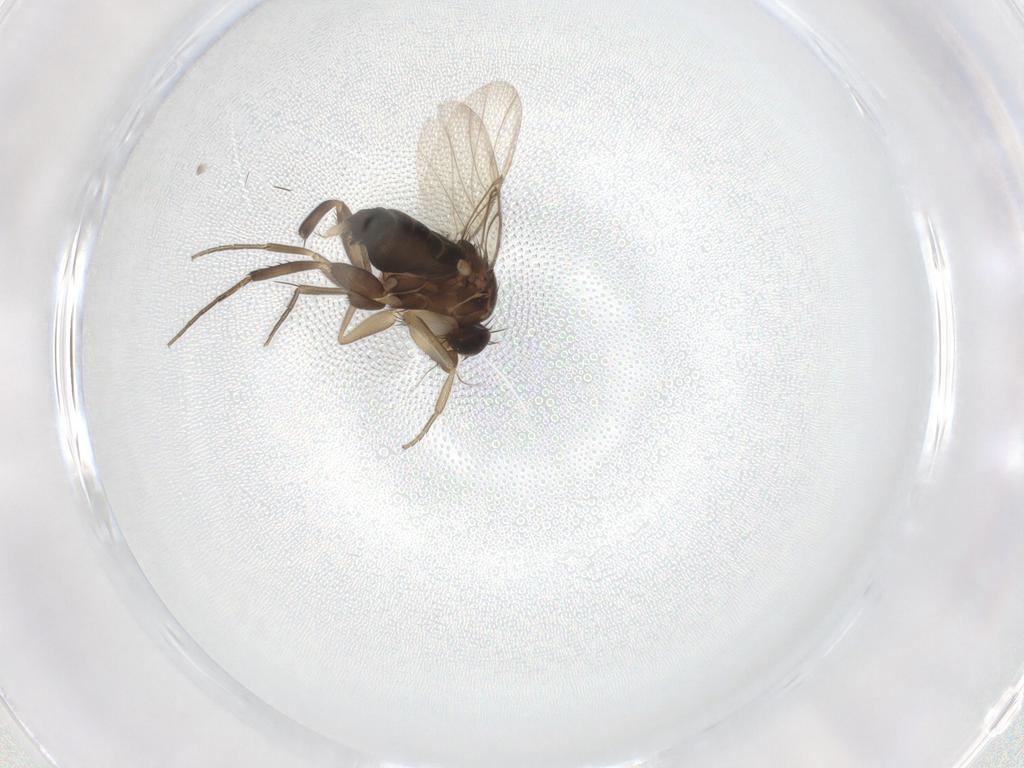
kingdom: Animalia
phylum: Arthropoda
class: Insecta
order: Diptera
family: Phoridae
